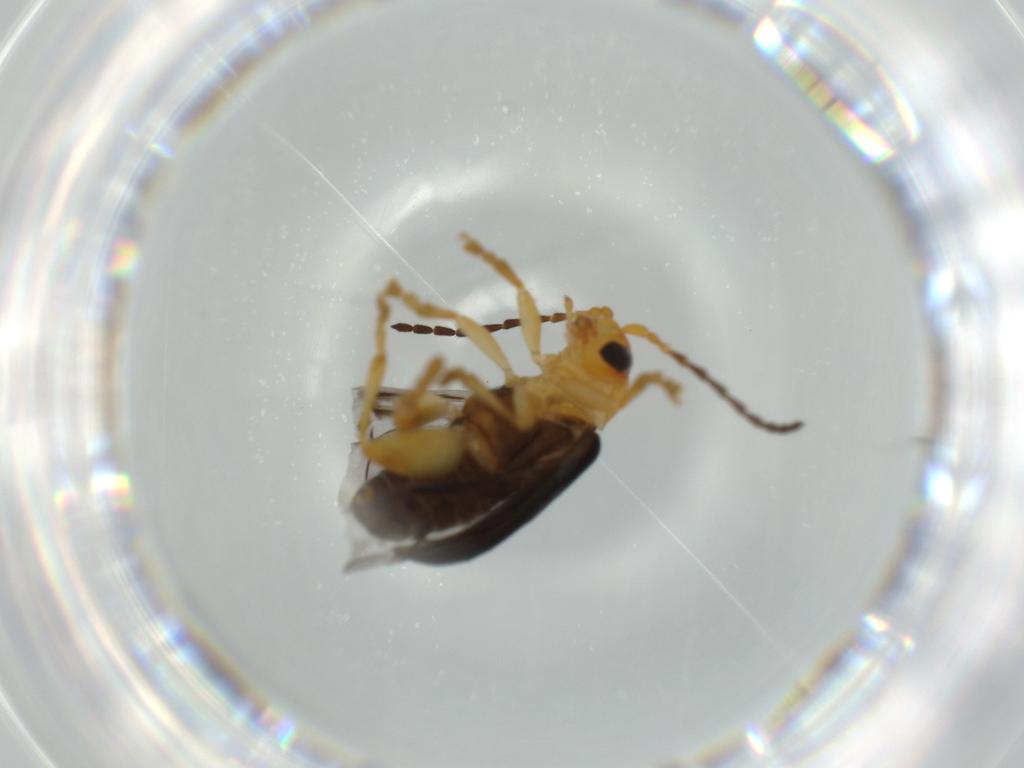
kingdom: Animalia
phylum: Arthropoda
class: Insecta
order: Coleoptera
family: Chrysomelidae
